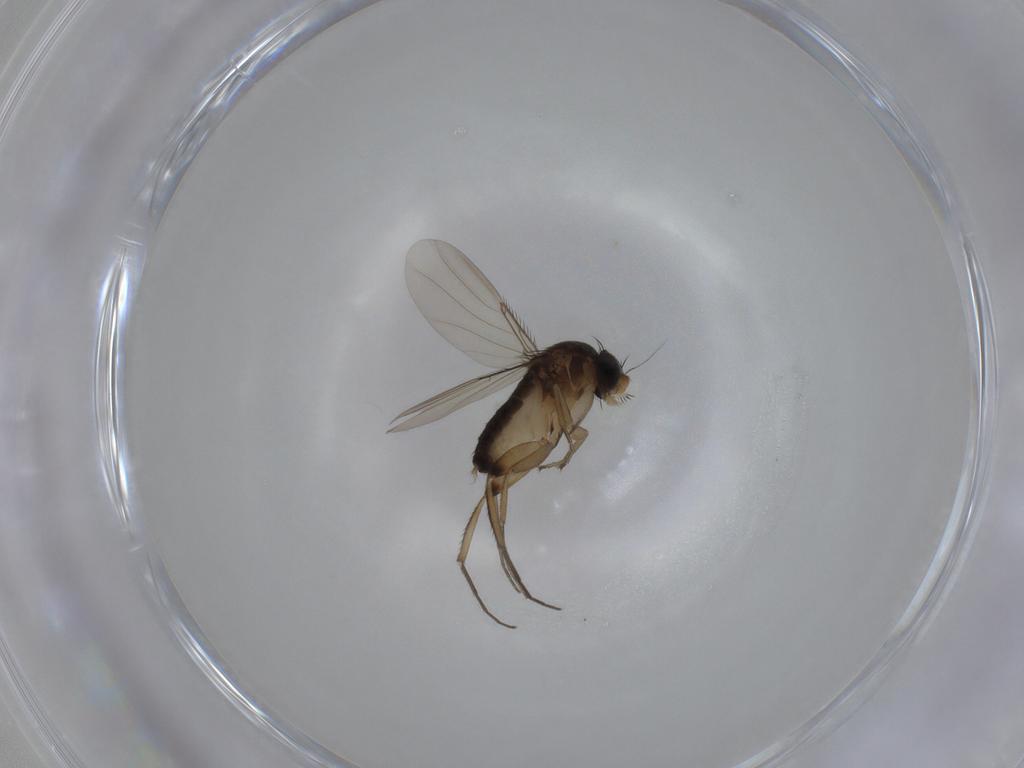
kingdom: Animalia
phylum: Arthropoda
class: Insecta
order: Diptera
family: Phoridae
